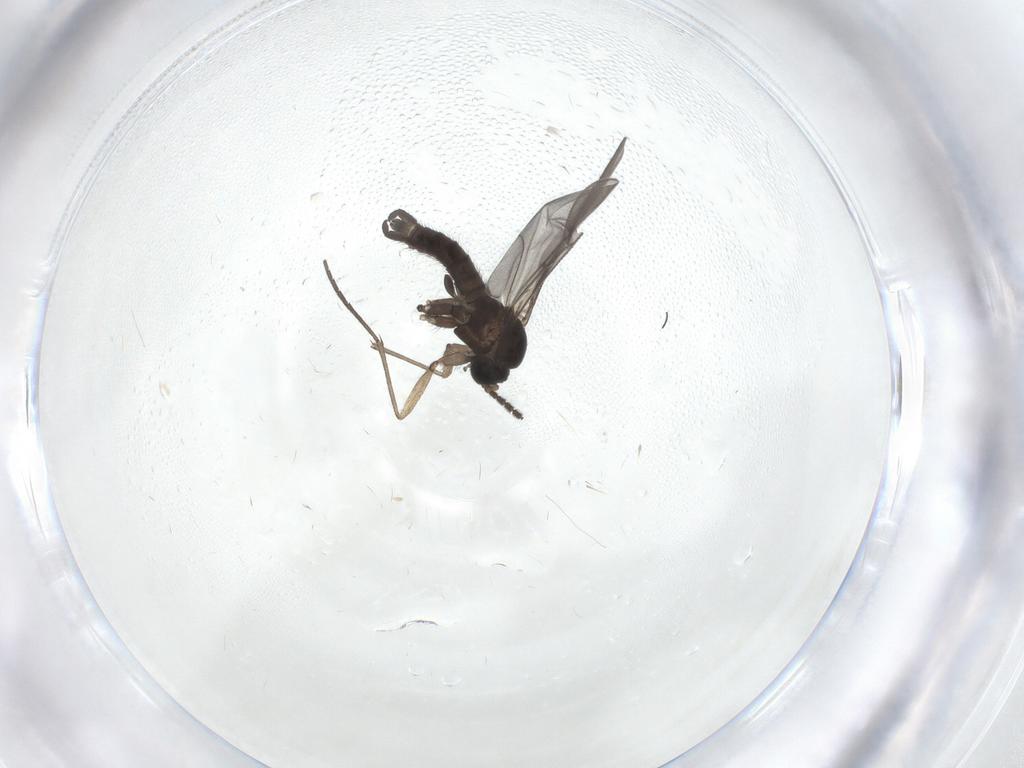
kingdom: Animalia
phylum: Arthropoda
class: Insecta
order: Diptera
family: Sciaridae
